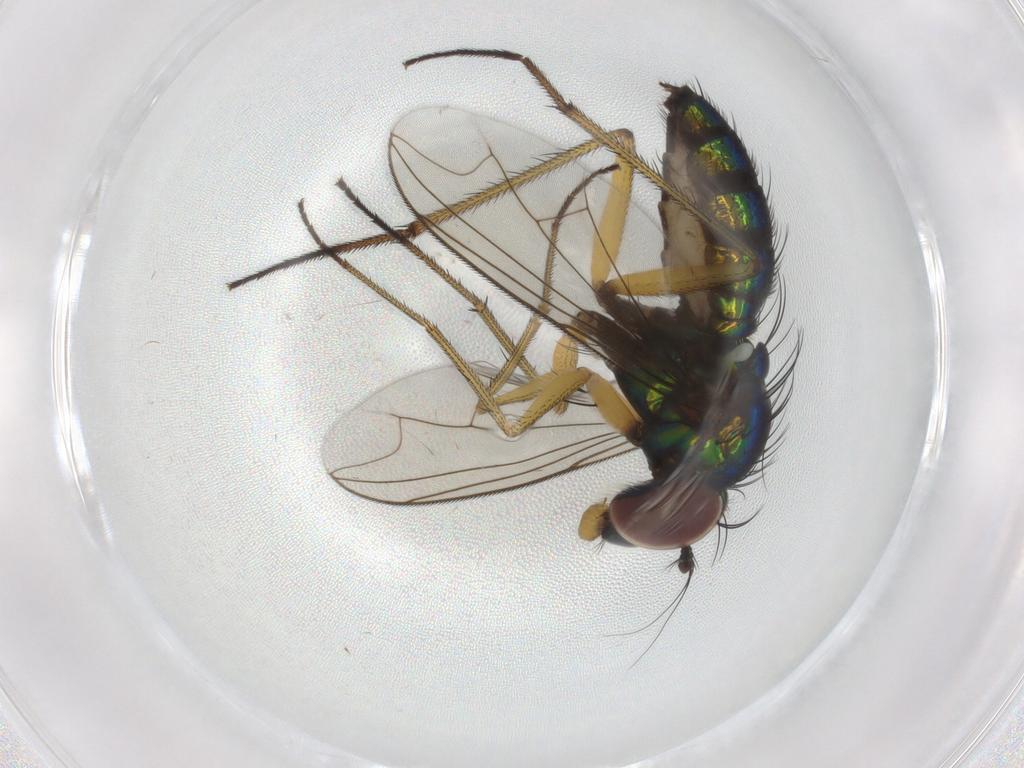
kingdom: Animalia
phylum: Arthropoda
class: Insecta
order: Diptera
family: Dolichopodidae
